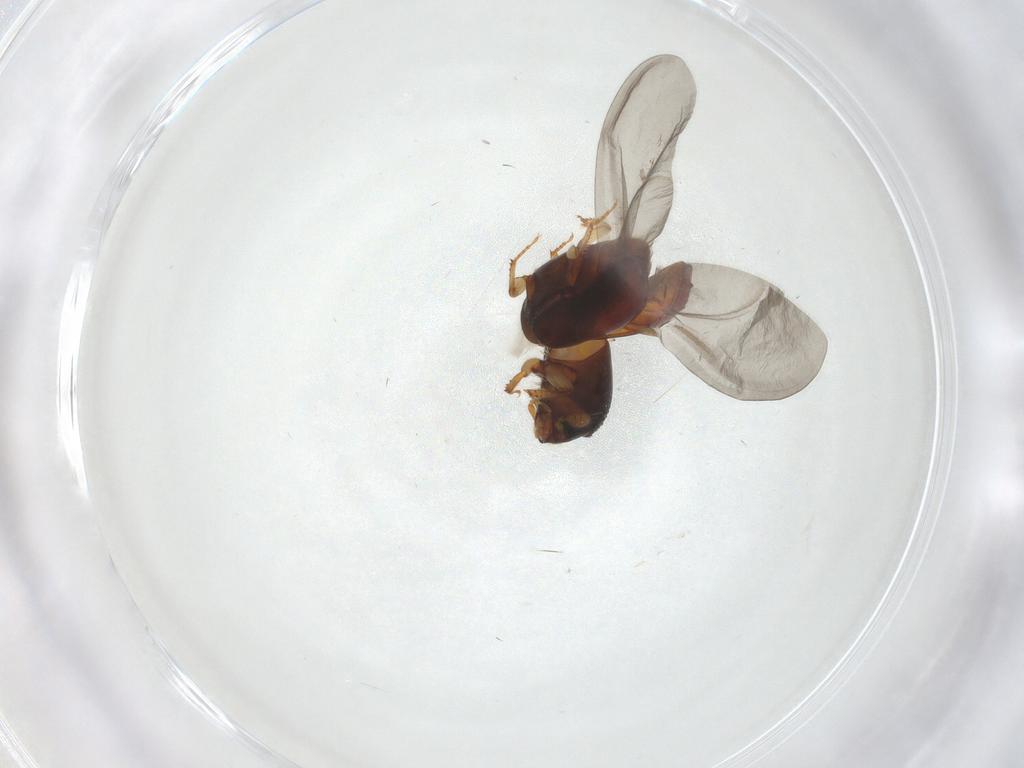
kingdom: Animalia
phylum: Arthropoda
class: Insecta
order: Coleoptera
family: Curculionidae
